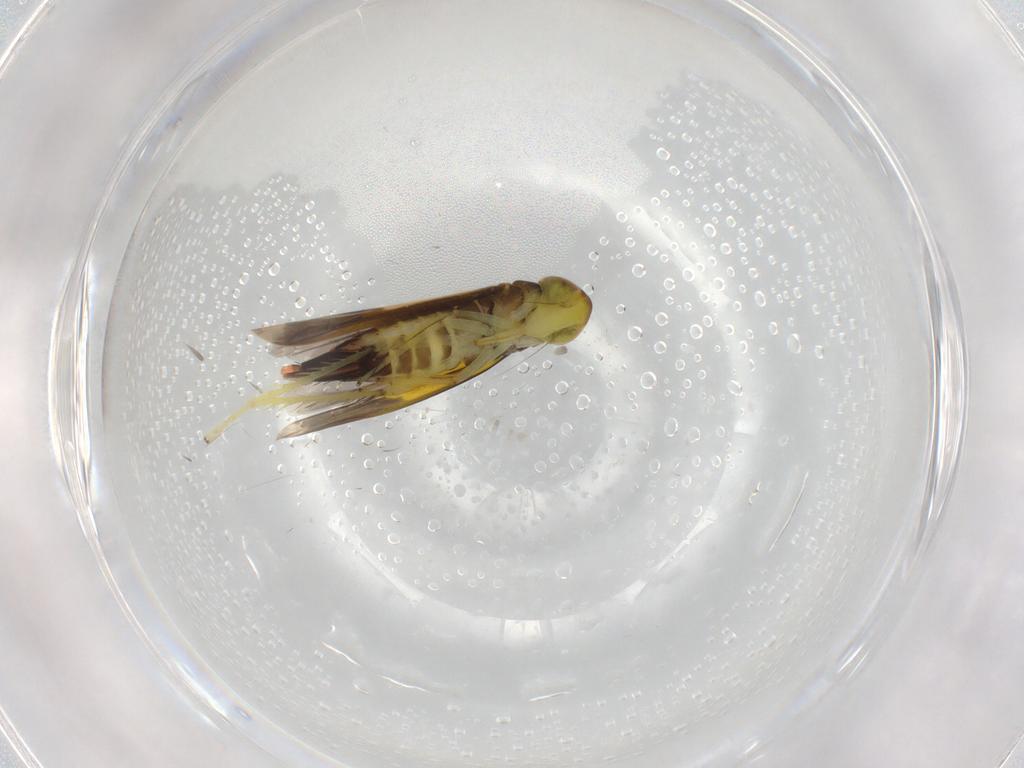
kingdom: Animalia
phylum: Arthropoda
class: Insecta
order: Hemiptera
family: Cicadellidae
